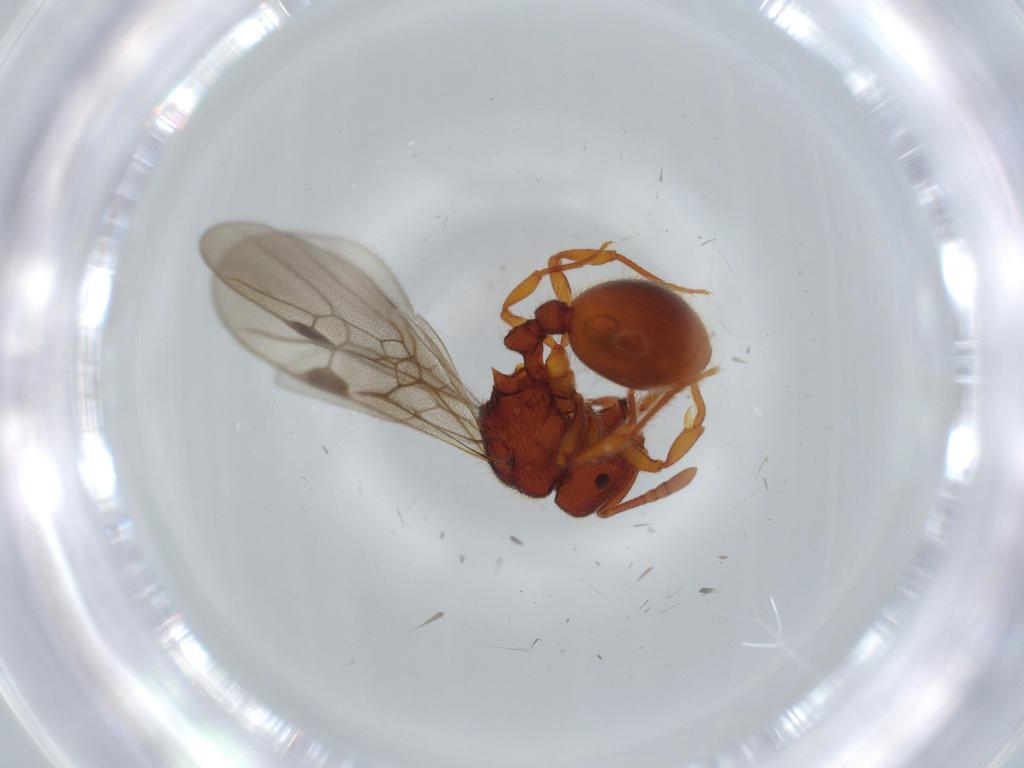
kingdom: Animalia
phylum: Arthropoda
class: Insecta
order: Hymenoptera
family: Formicidae
